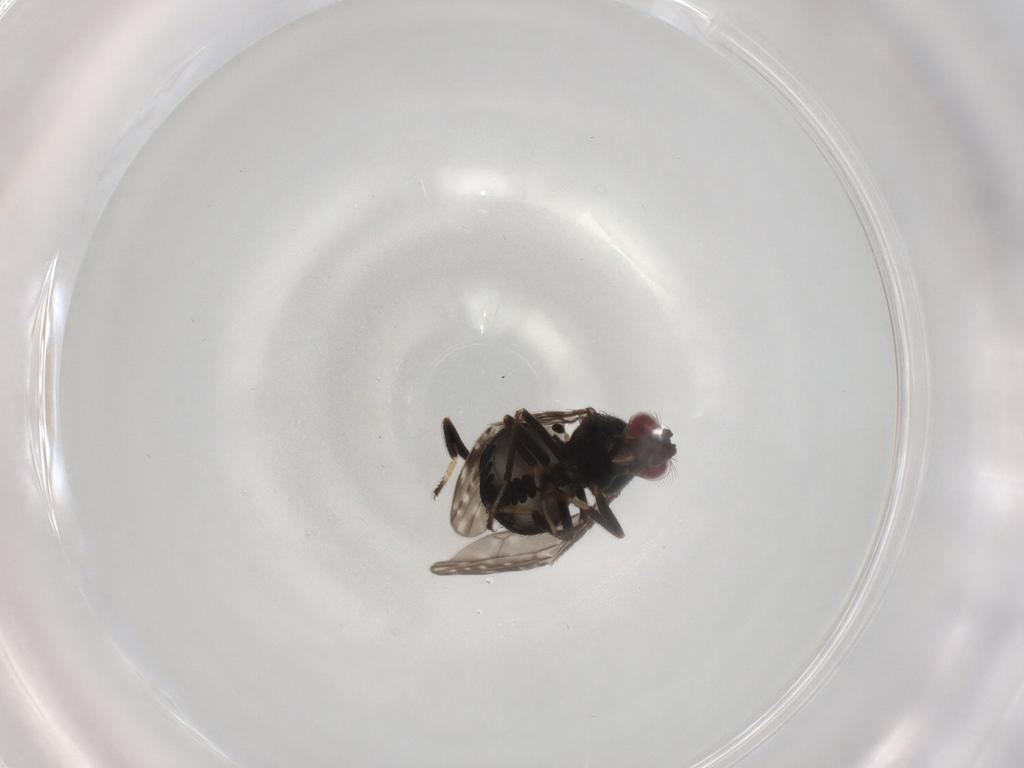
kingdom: Animalia
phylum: Arthropoda
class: Insecta
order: Diptera
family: Ephydridae
